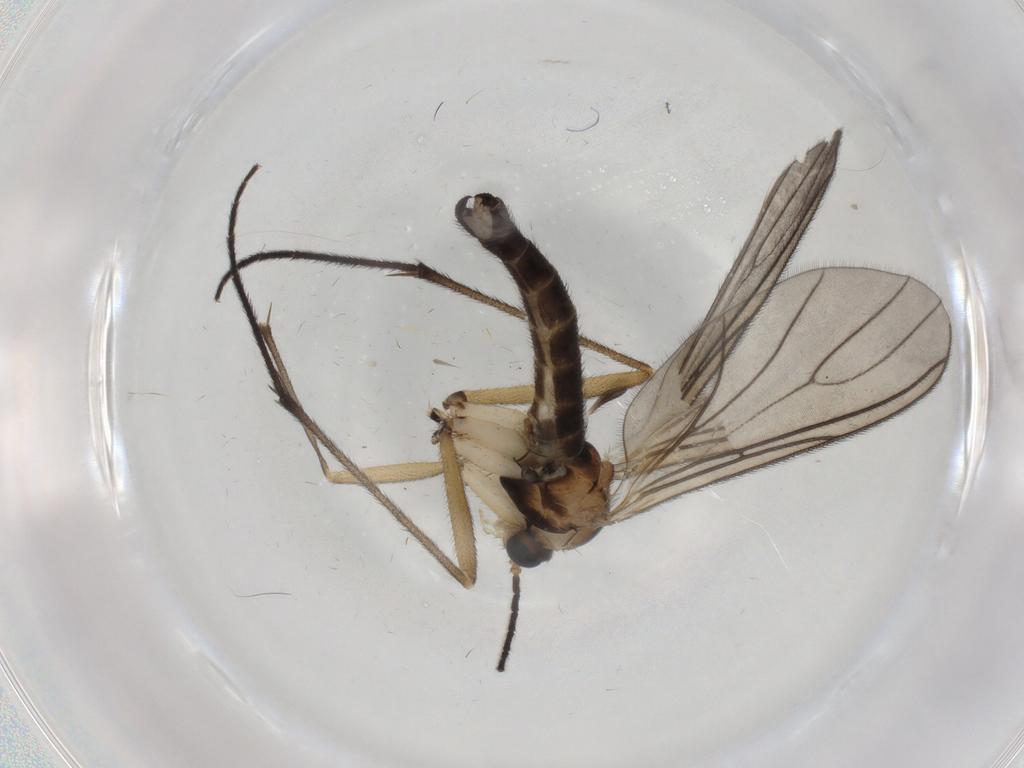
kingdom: Animalia
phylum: Arthropoda
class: Insecta
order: Diptera
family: Sciaridae
